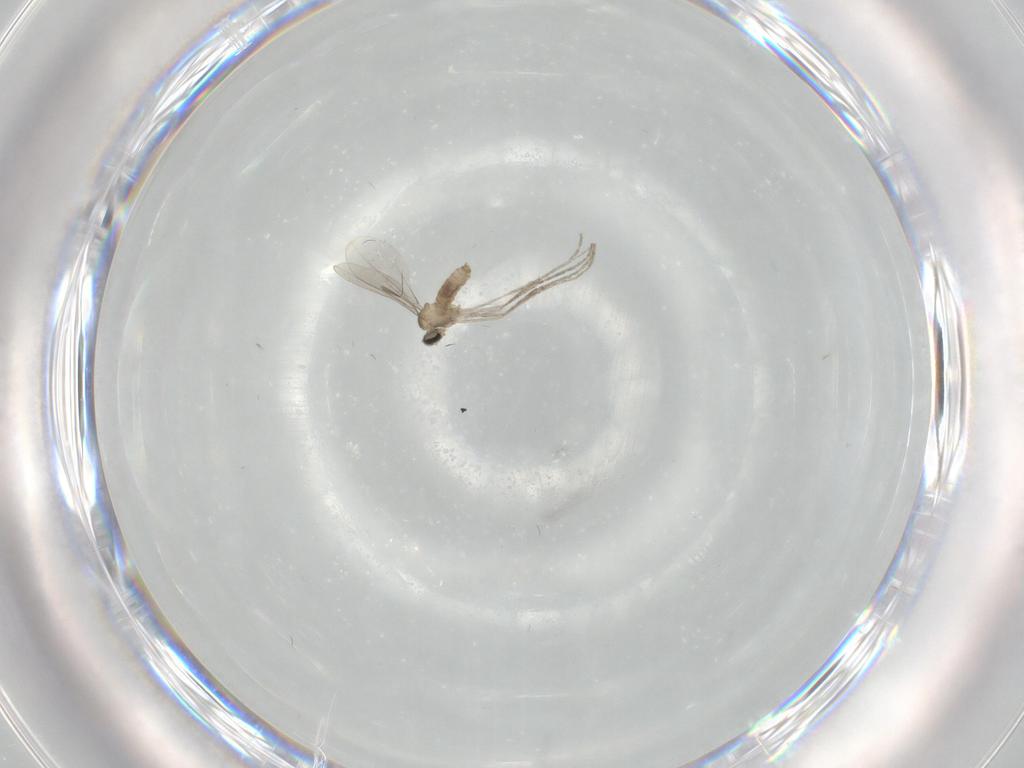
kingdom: Animalia
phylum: Arthropoda
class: Insecta
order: Diptera
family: Cecidomyiidae
